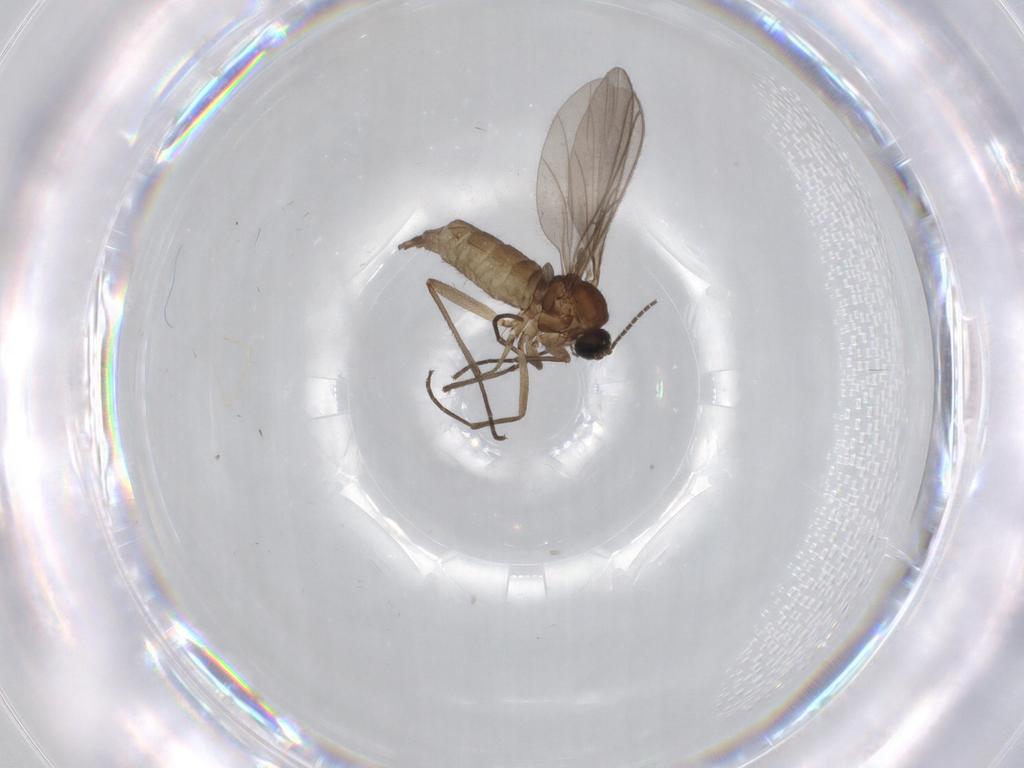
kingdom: Animalia
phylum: Arthropoda
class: Insecta
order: Diptera
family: Sciaridae
